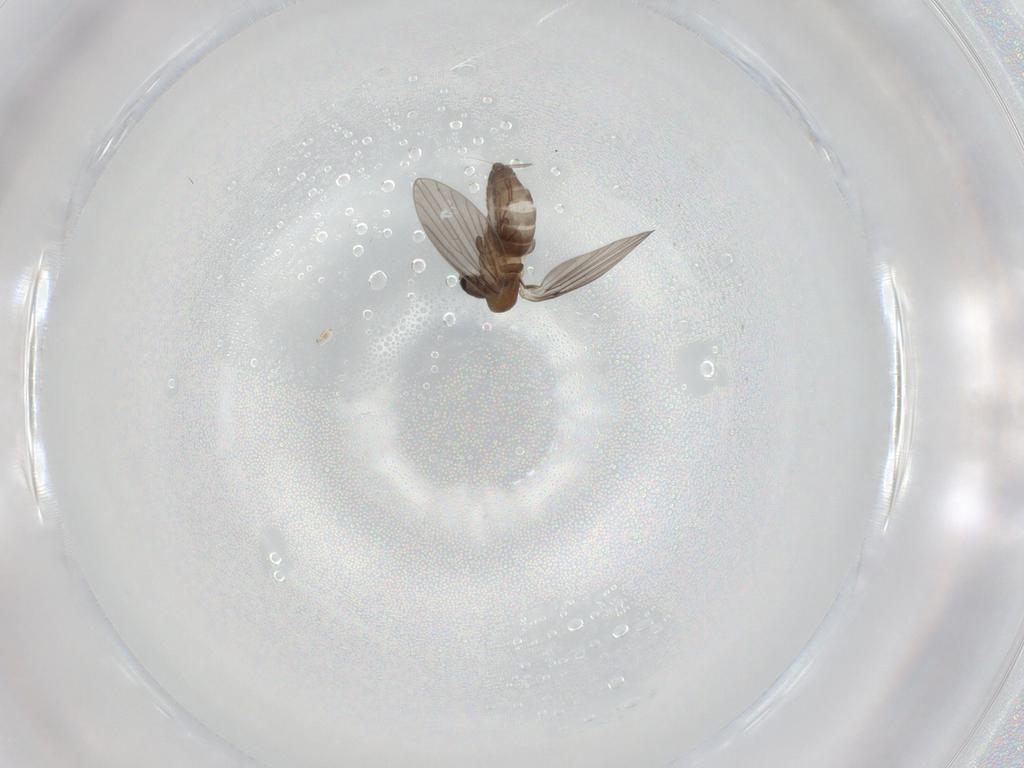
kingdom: Animalia
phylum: Arthropoda
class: Insecta
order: Diptera
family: Psychodidae
